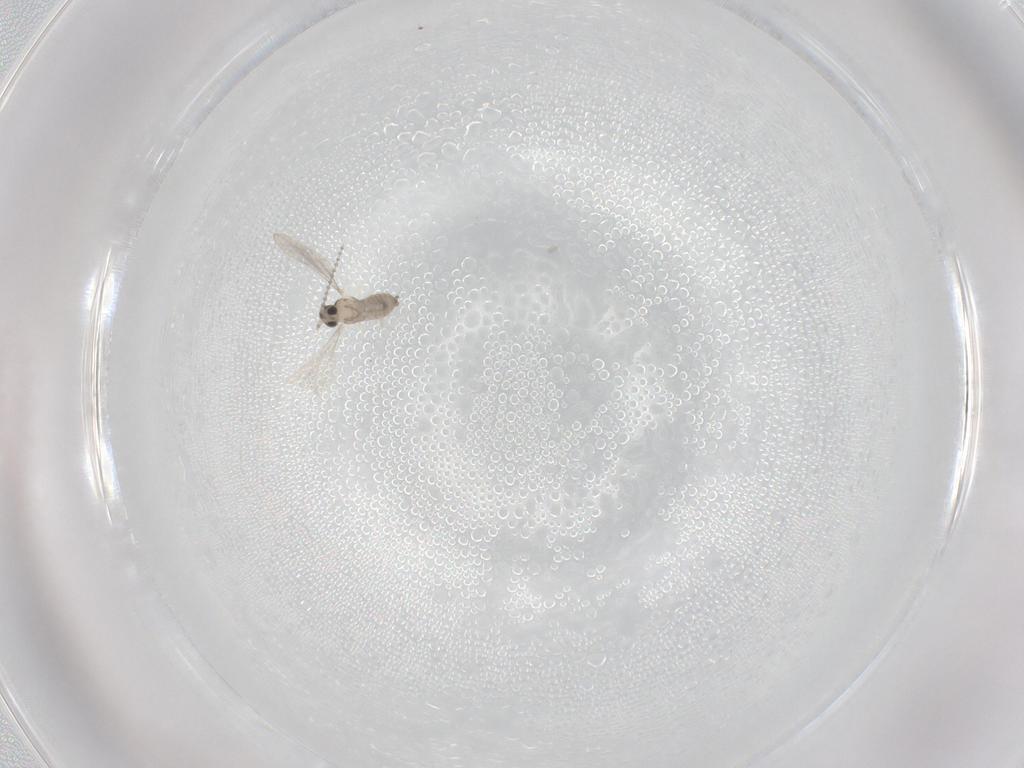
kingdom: Animalia
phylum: Arthropoda
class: Insecta
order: Diptera
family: Cecidomyiidae
